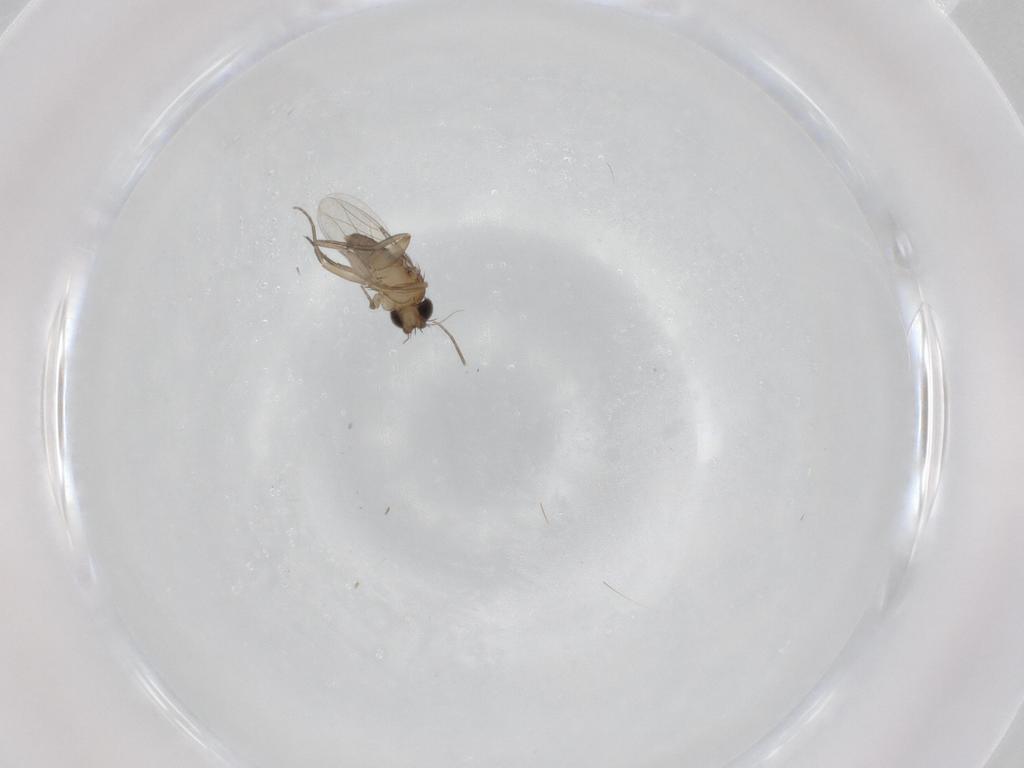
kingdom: Animalia
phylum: Arthropoda
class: Insecta
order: Diptera
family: Phoridae
